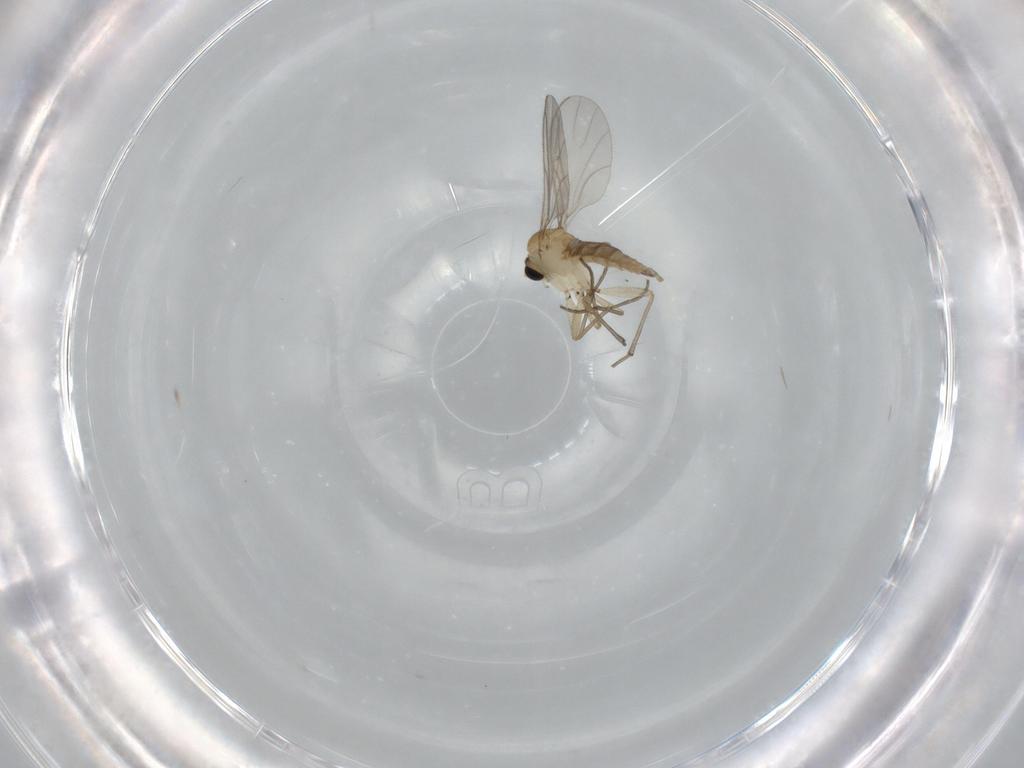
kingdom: Animalia
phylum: Arthropoda
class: Insecta
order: Diptera
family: Sciaridae
